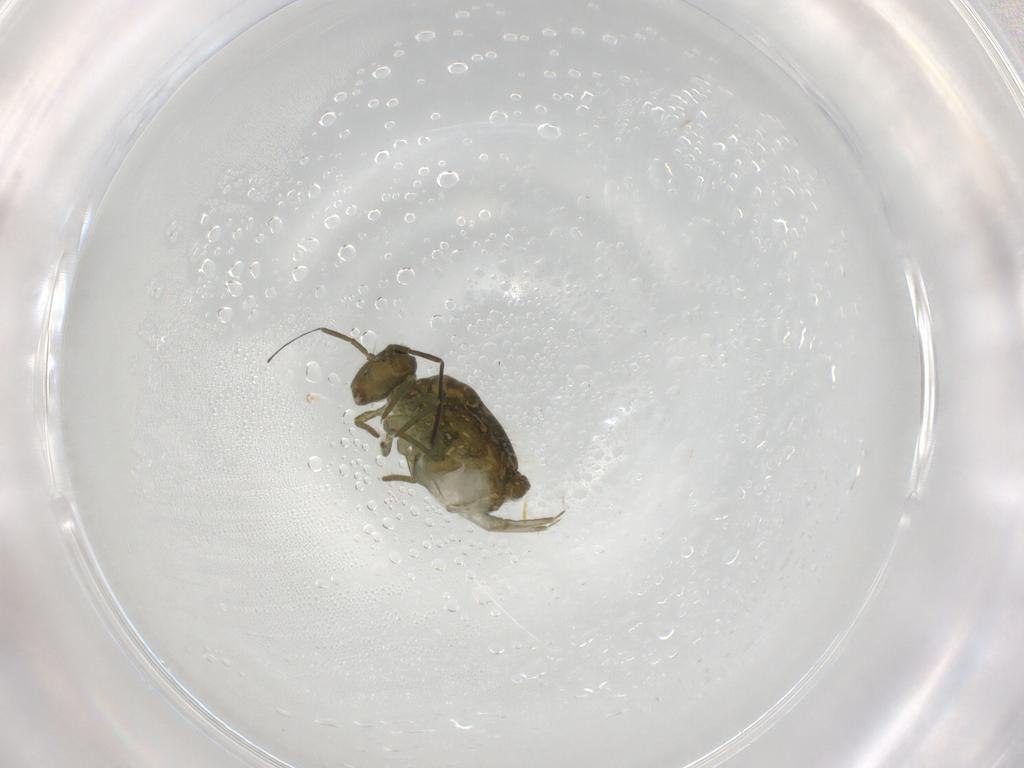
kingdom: Animalia
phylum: Arthropoda
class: Collembola
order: Symphypleona
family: Sminthuridae
